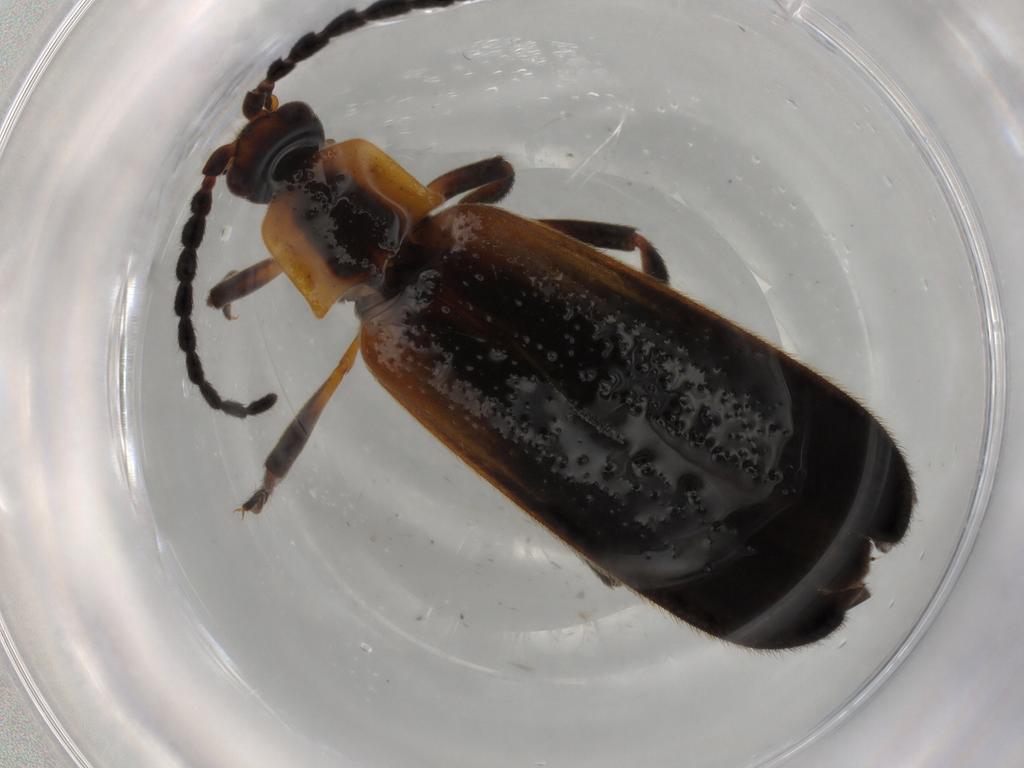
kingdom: Animalia
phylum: Arthropoda
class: Insecta
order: Coleoptera
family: Lycidae
